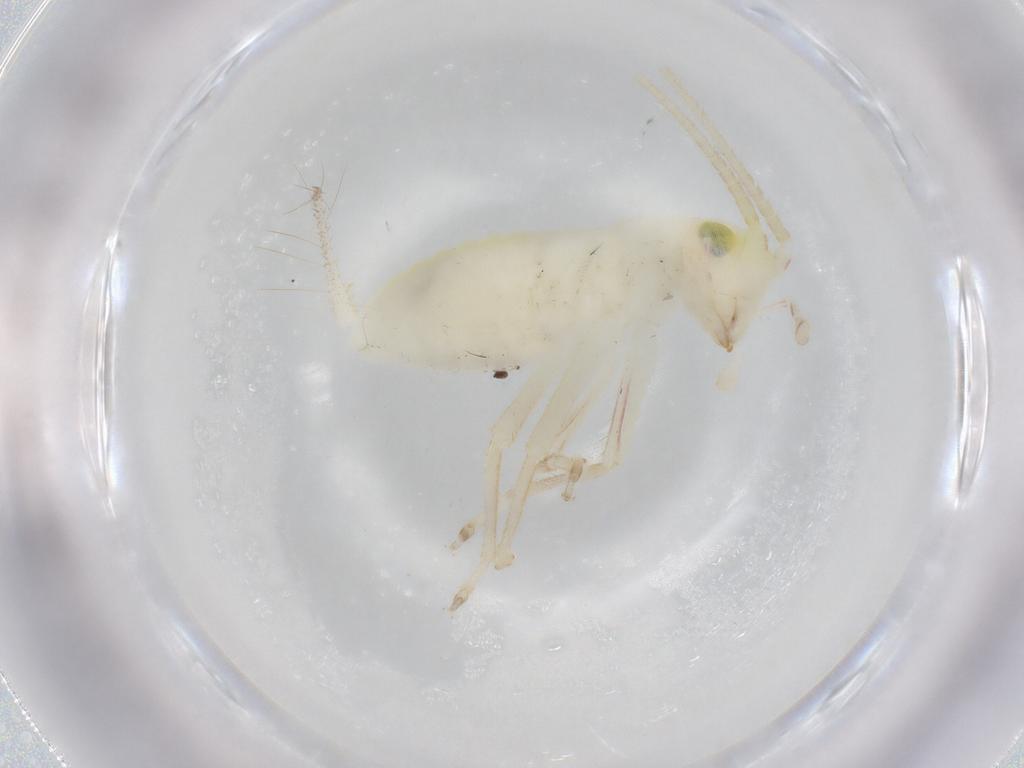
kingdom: Animalia
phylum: Arthropoda
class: Insecta
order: Orthoptera
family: Trigonidiidae
